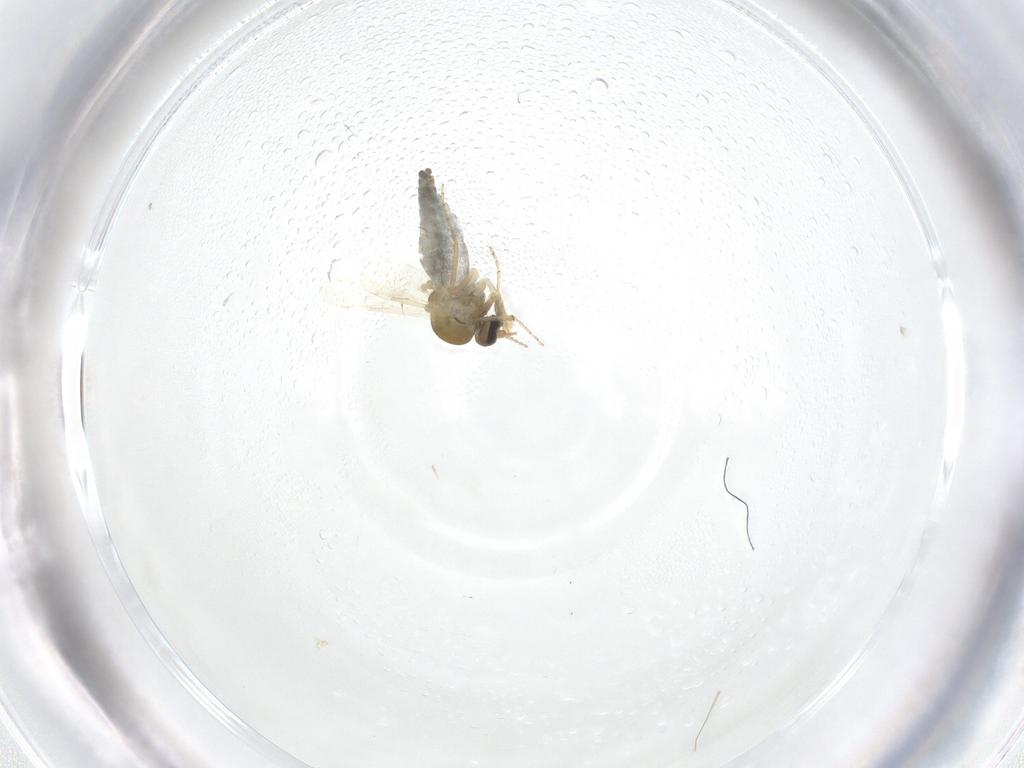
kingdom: Animalia
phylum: Arthropoda
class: Insecta
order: Diptera
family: Ceratopogonidae
